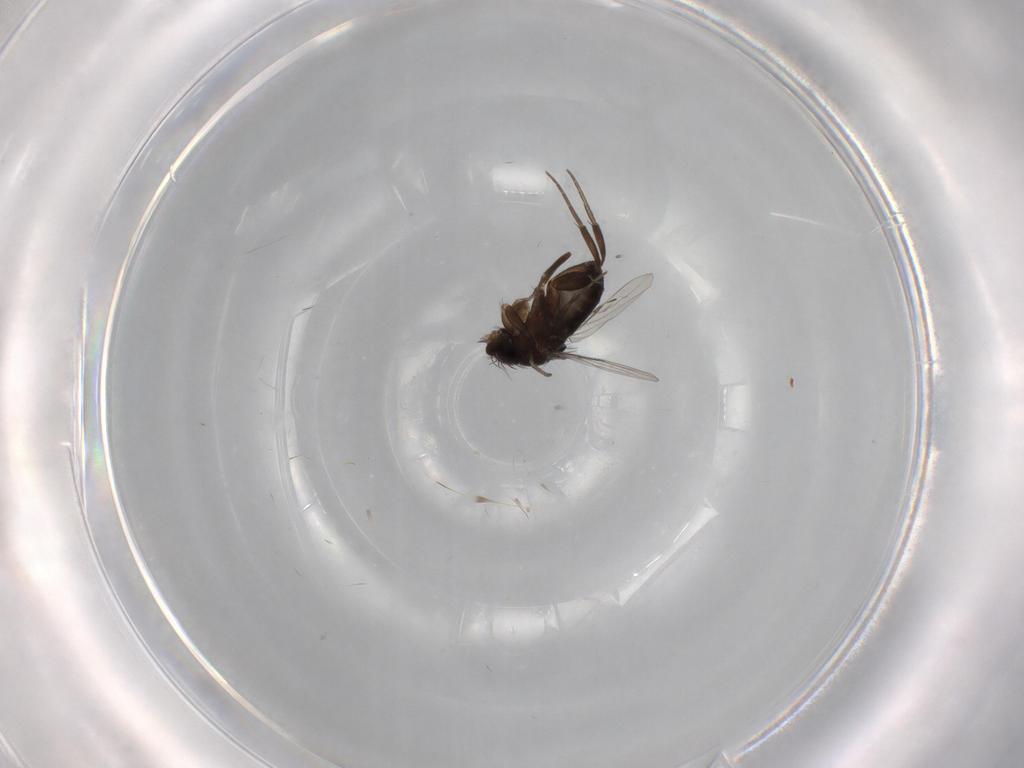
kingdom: Animalia
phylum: Arthropoda
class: Insecta
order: Diptera
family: Phoridae
